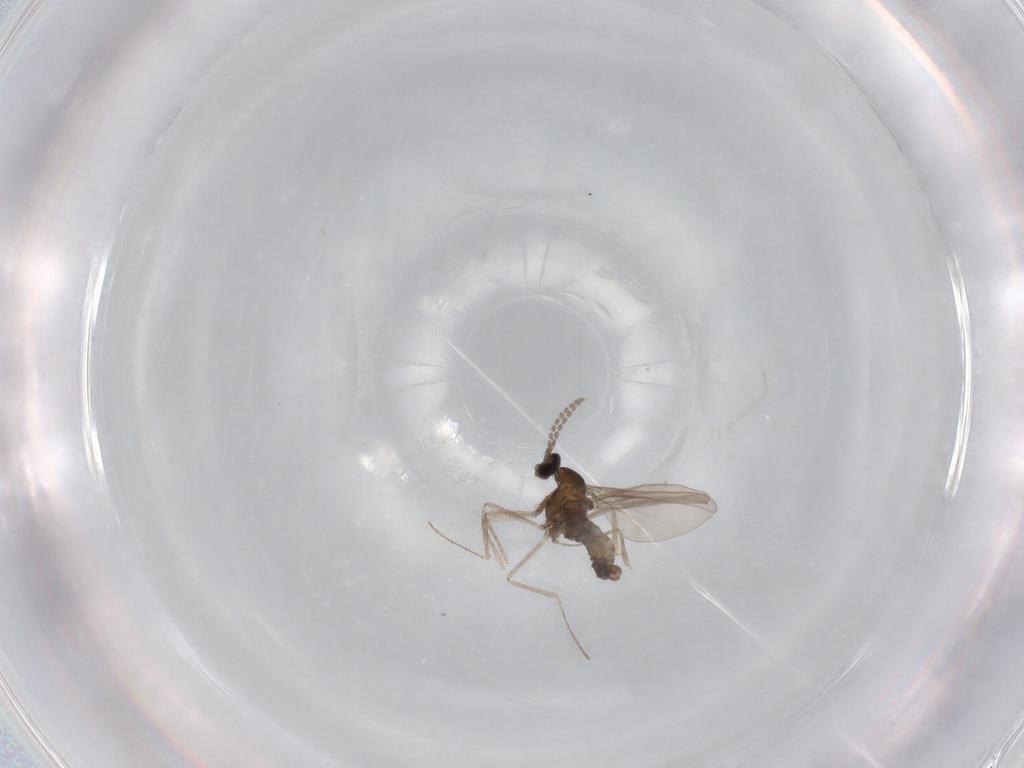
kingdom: Animalia
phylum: Arthropoda
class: Insecta
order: Diptera
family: Cecidomyiidae
